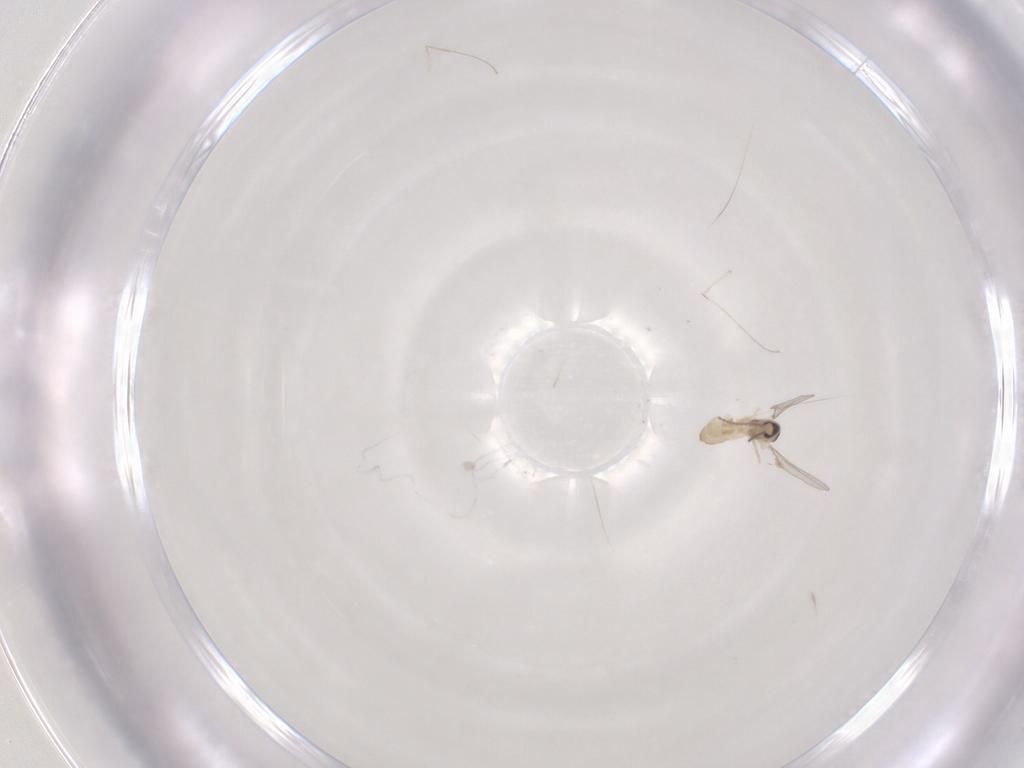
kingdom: Animalia
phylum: Arthropoda
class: Insecta
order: Diptera
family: Cecidomyiidae
